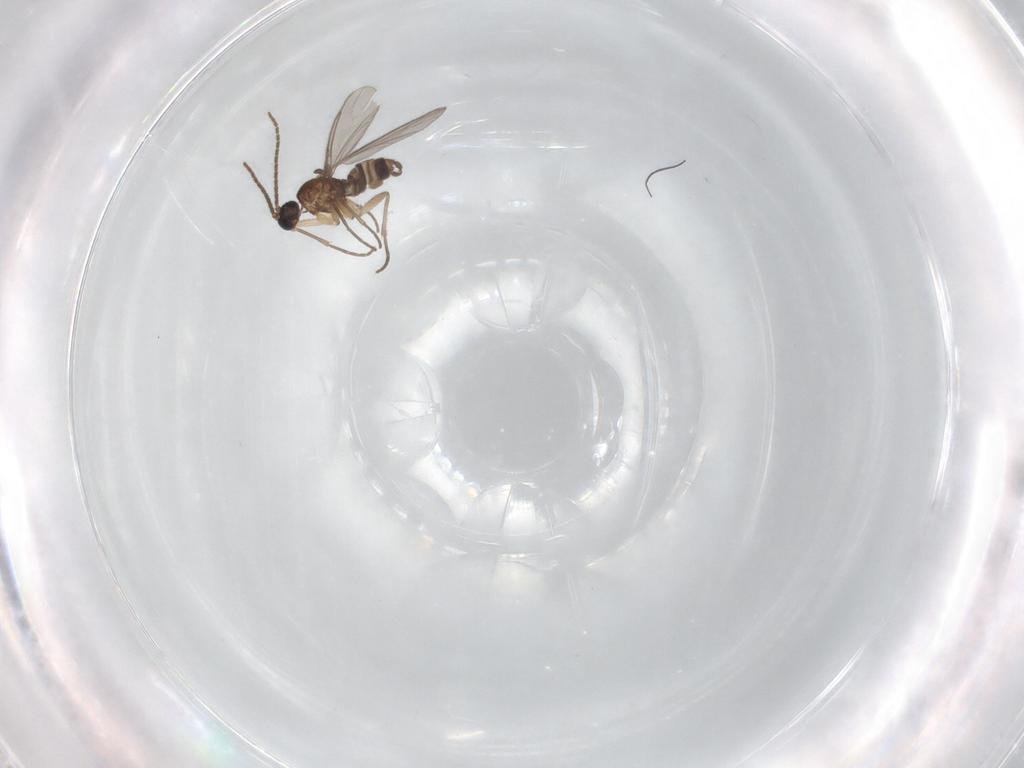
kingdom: Animalia
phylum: Arthropoda
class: Insecta
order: Diptera
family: Sciaridae
